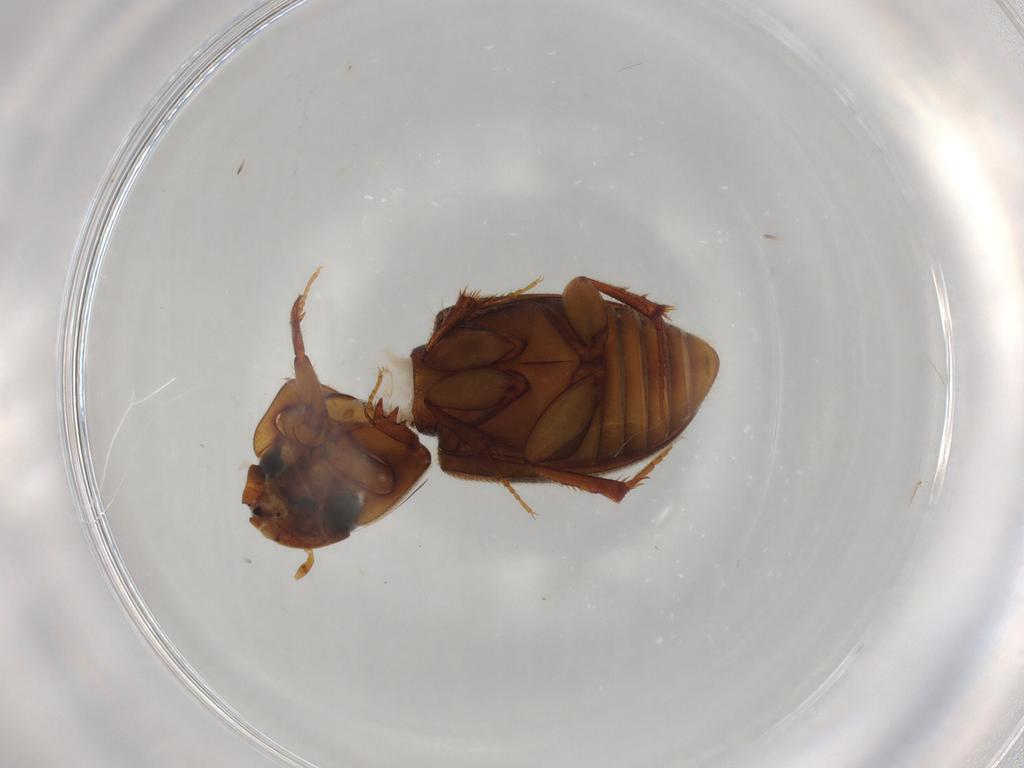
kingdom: Animalia
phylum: Arthropoda
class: Insecta
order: Coleoptera
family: Scarabaeidae
